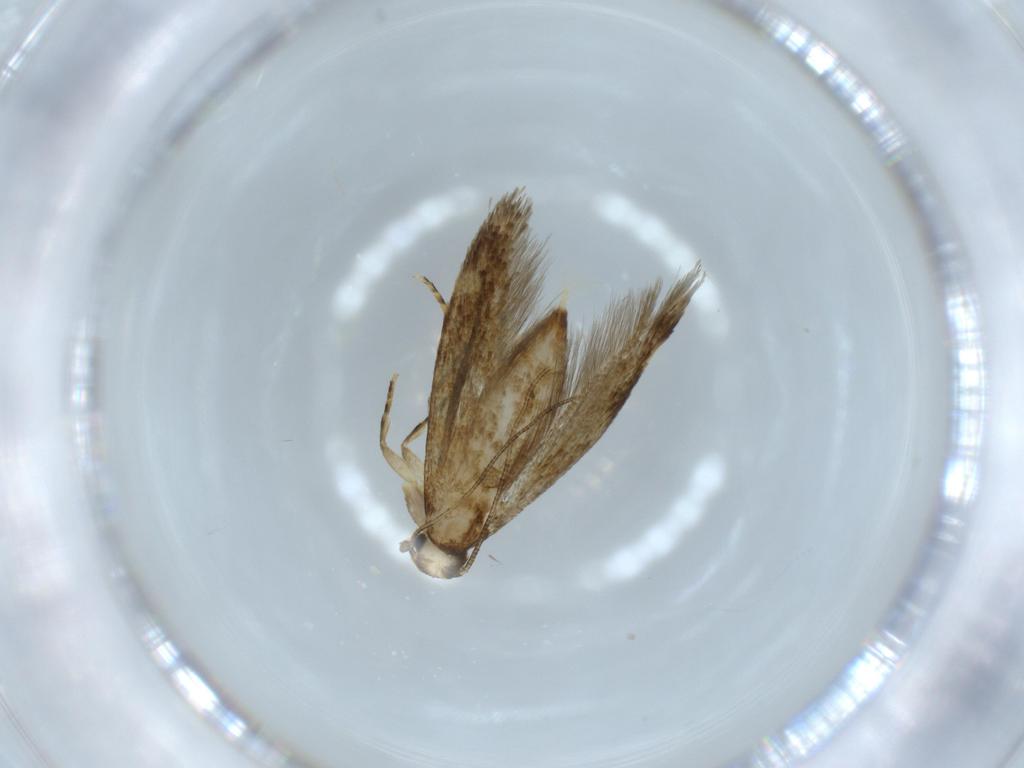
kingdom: Animalia
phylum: Arthropoda
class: Insecta
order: Lepidoptera
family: Tineidae
